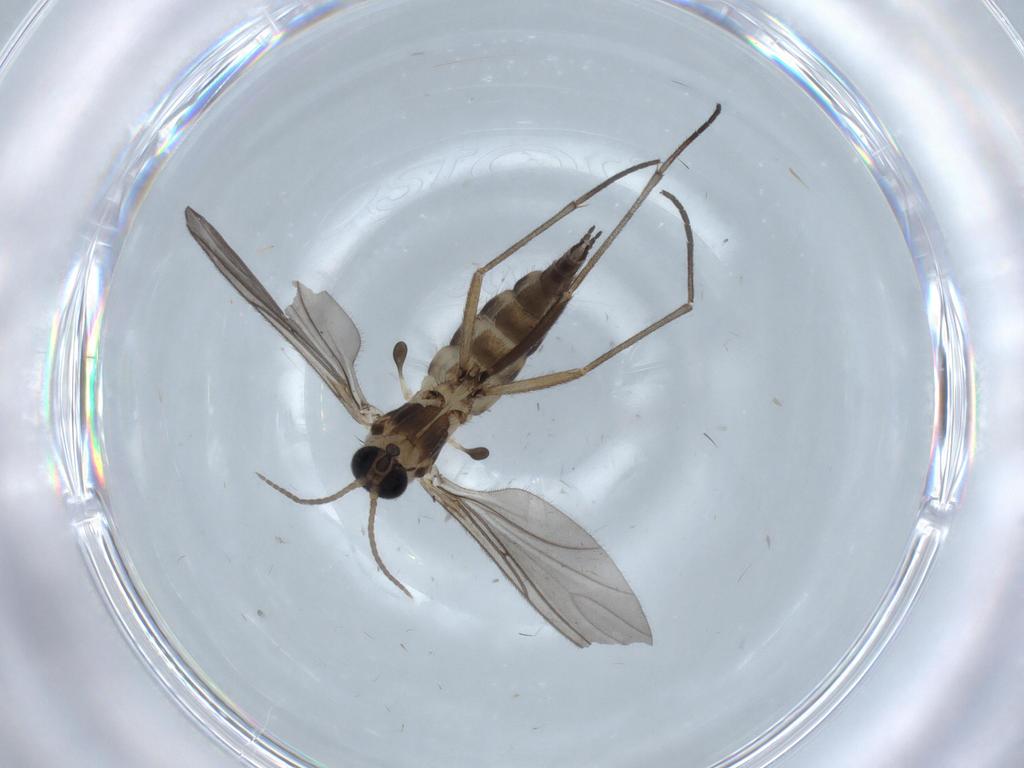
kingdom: Animalia
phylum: Arthropoda
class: Insecta
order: Diptera
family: Sciaridae
